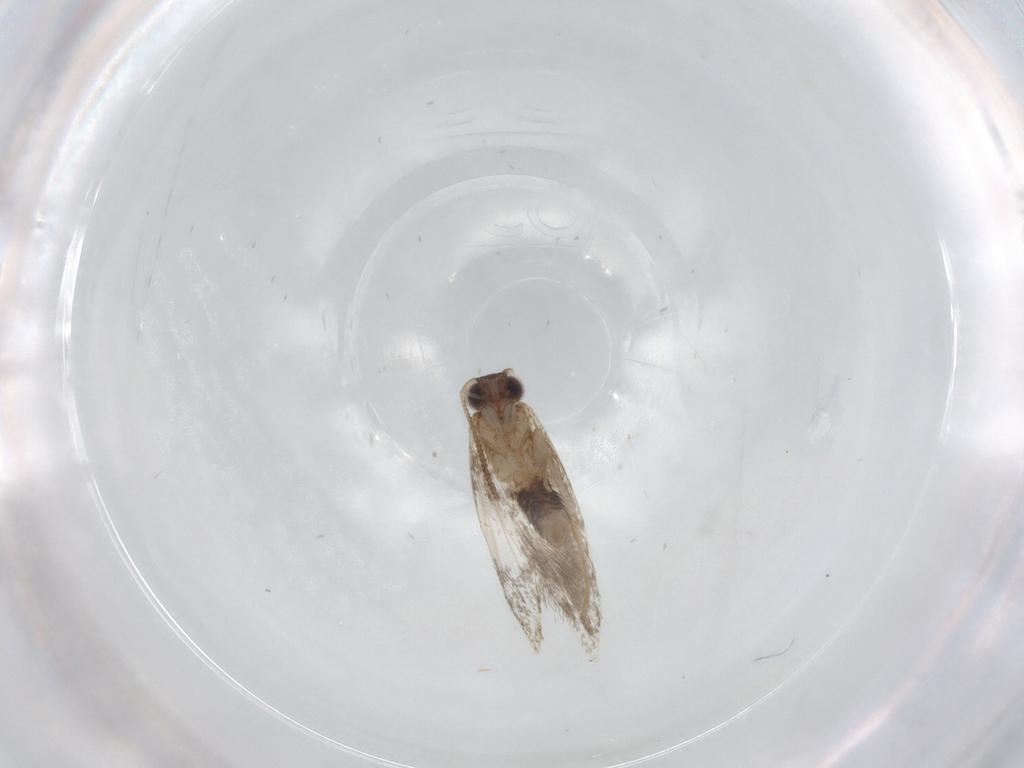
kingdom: Animalia
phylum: Arthropoda
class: Insecta
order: Lepidoptera
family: Tineidae
